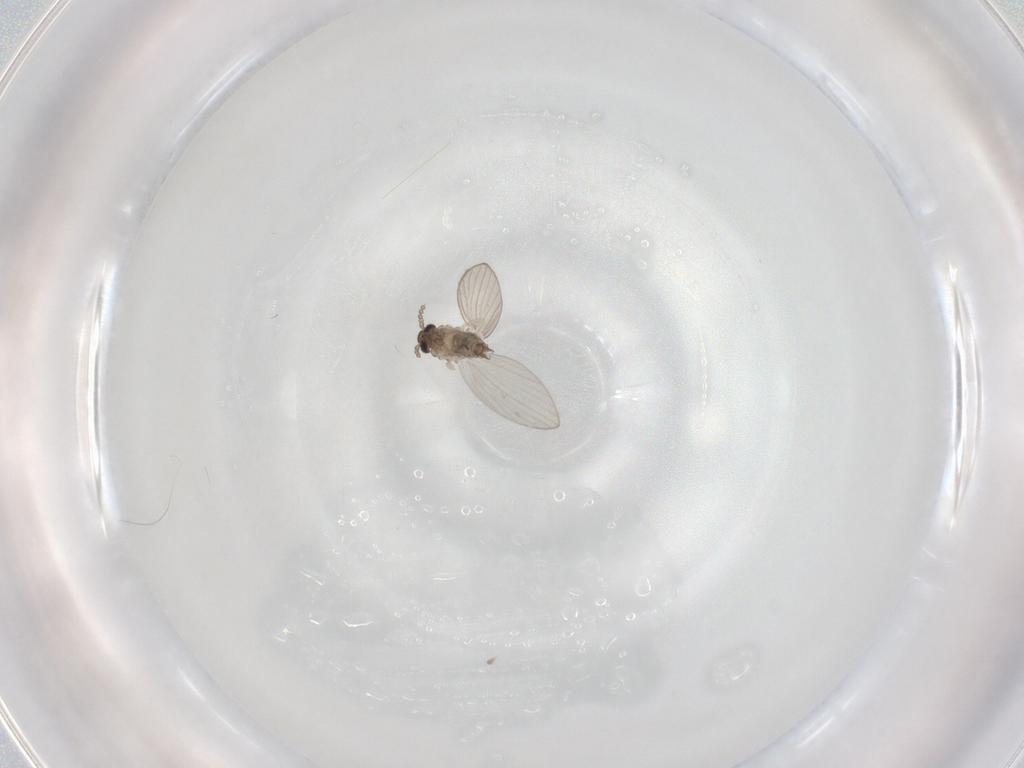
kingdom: Animalia
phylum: Arthropoda
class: Insecta
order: Diptera
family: Psychodidae
